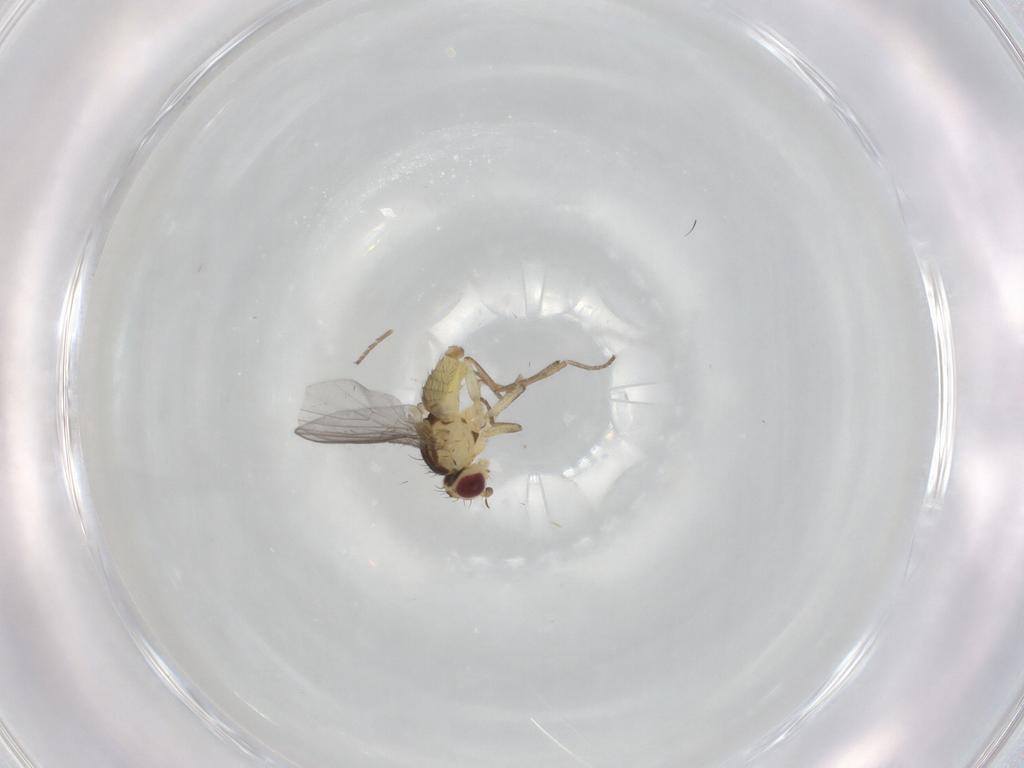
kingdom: Animalia
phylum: Arthropoda
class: Insecta
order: Diptera
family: Agromyzidae
